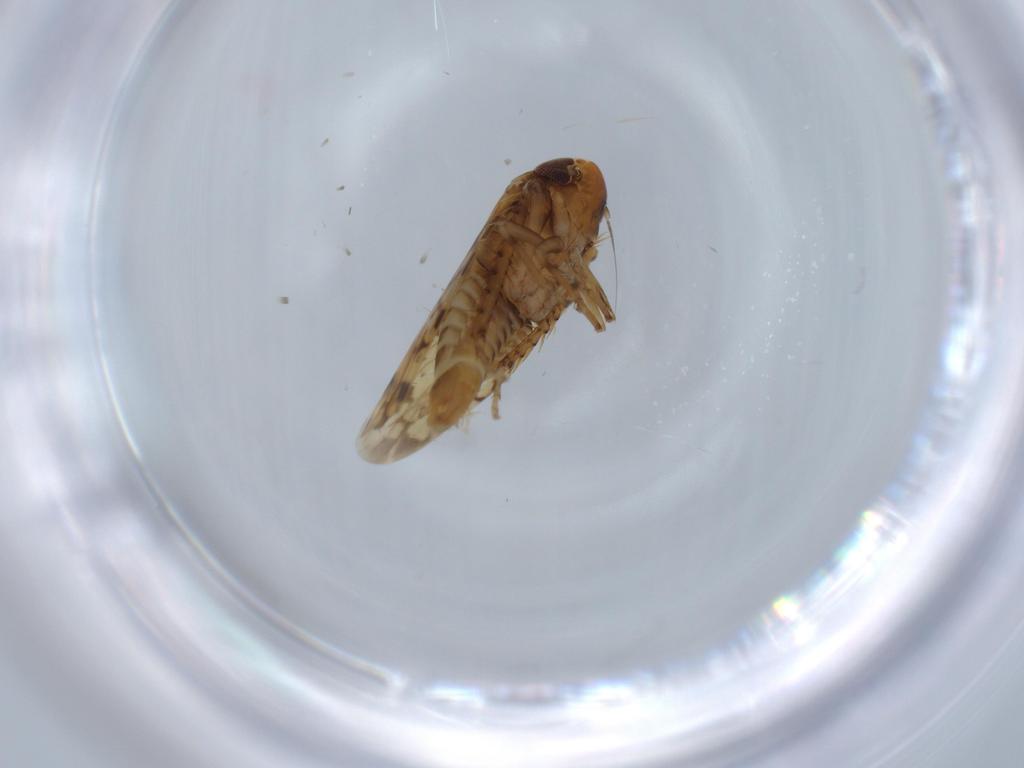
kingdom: Animalia
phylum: Arthropoda
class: Insecta
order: Hemiptera
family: Cicadellidae
